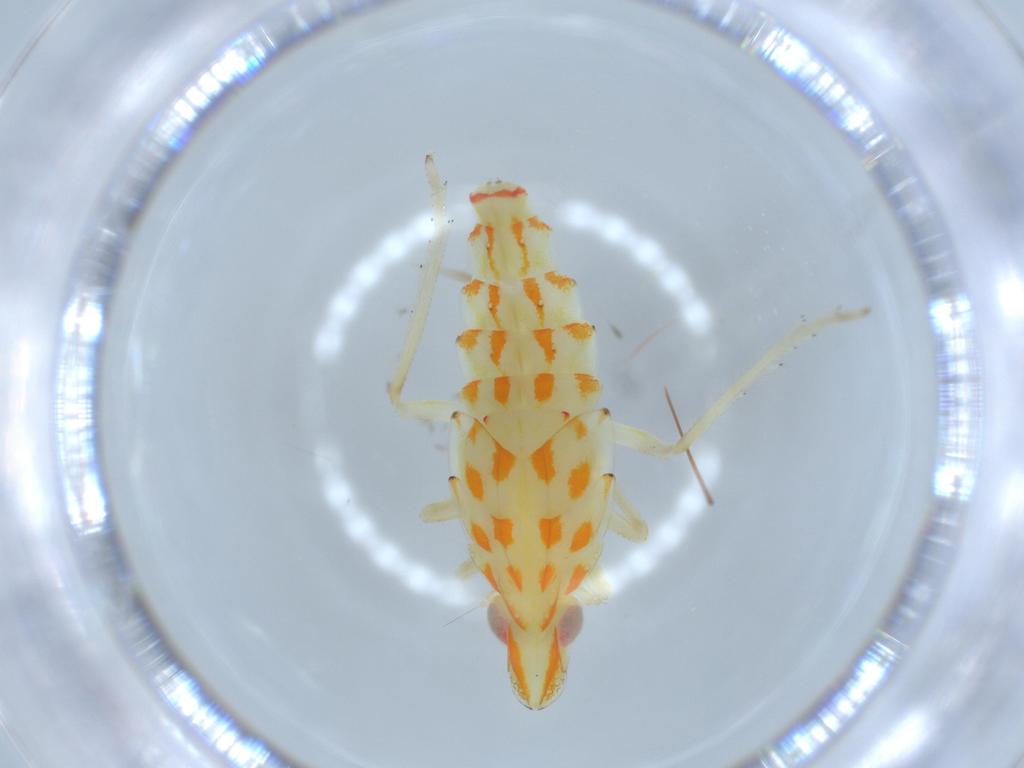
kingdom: Animalia
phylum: Arthropoda
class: Insecta
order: Hemiptera
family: Tropiduchidae
